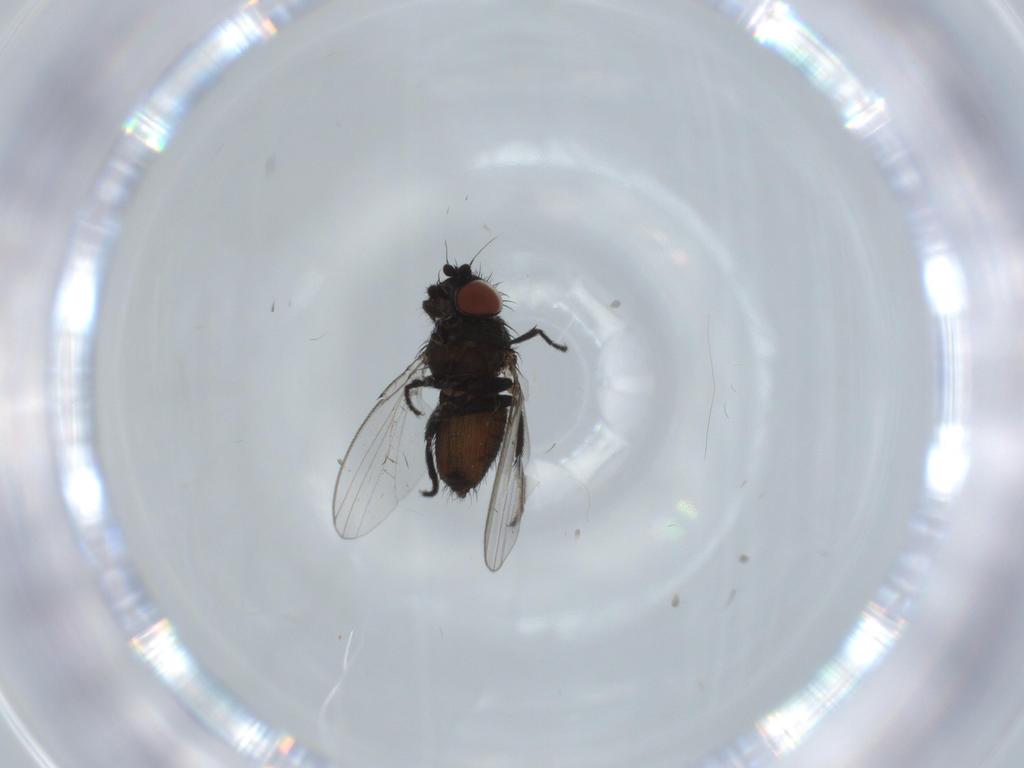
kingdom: Animalia
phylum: Arthropoda
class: Insecta
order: Diptera
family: Milichiidae
